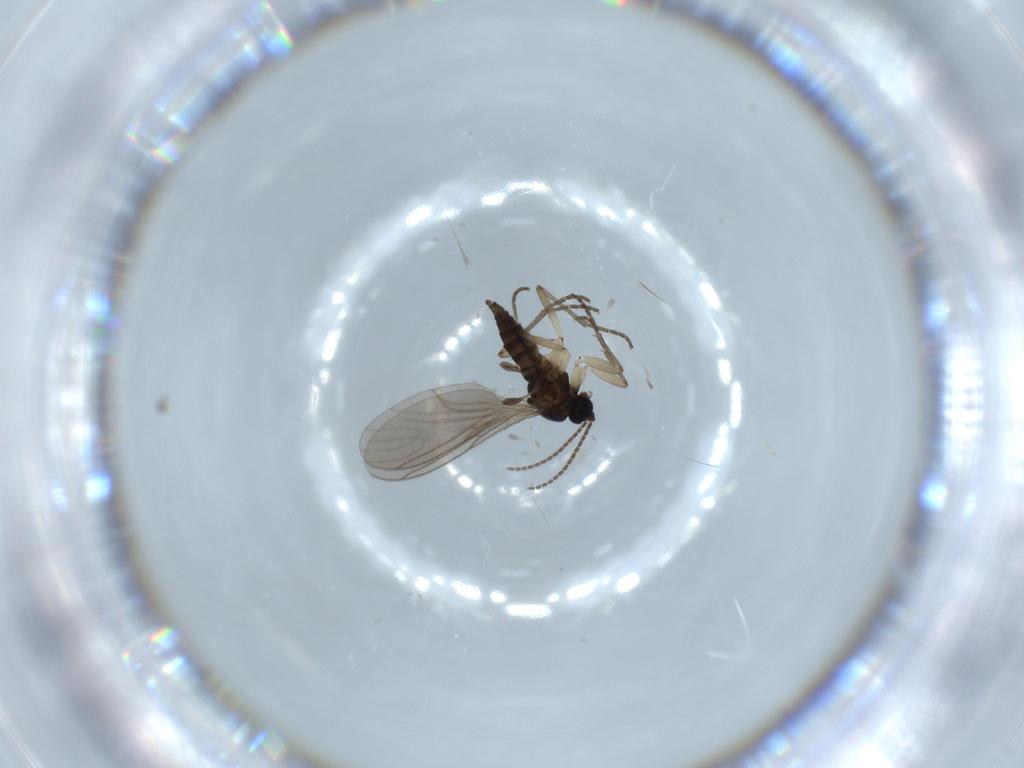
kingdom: Animalia
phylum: Arthropoda
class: Insecta
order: Diptera
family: Sciaridae
